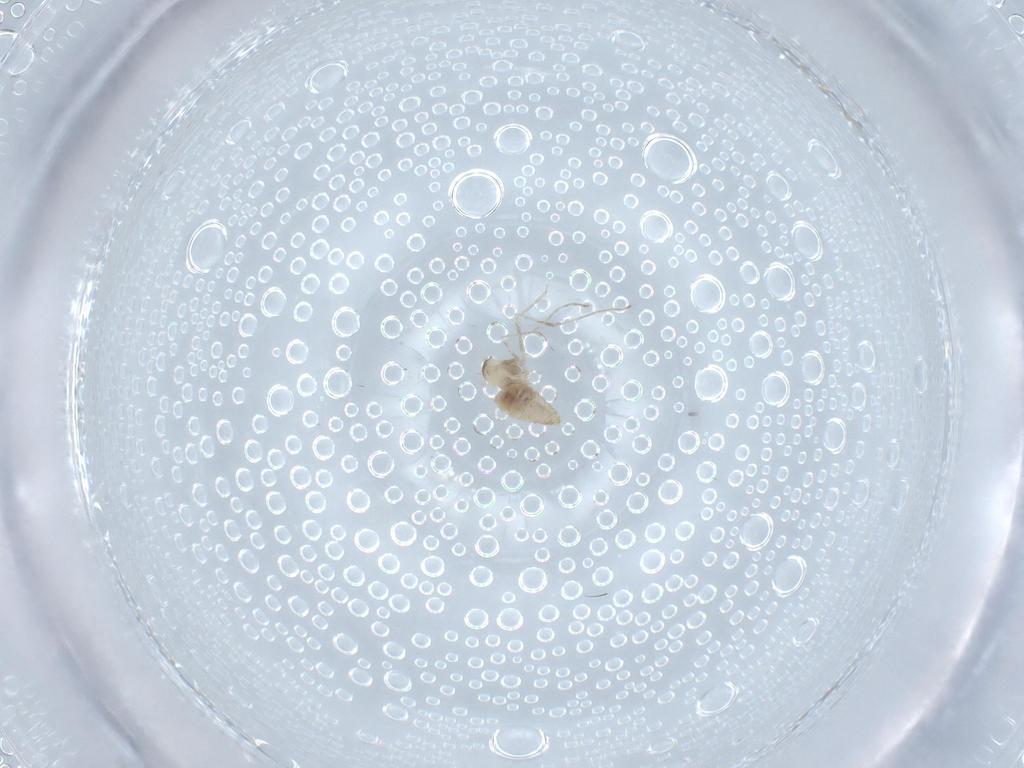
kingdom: Animalia
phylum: Arthropoda
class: Insecta
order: Diptera
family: Cecidomyiidae
